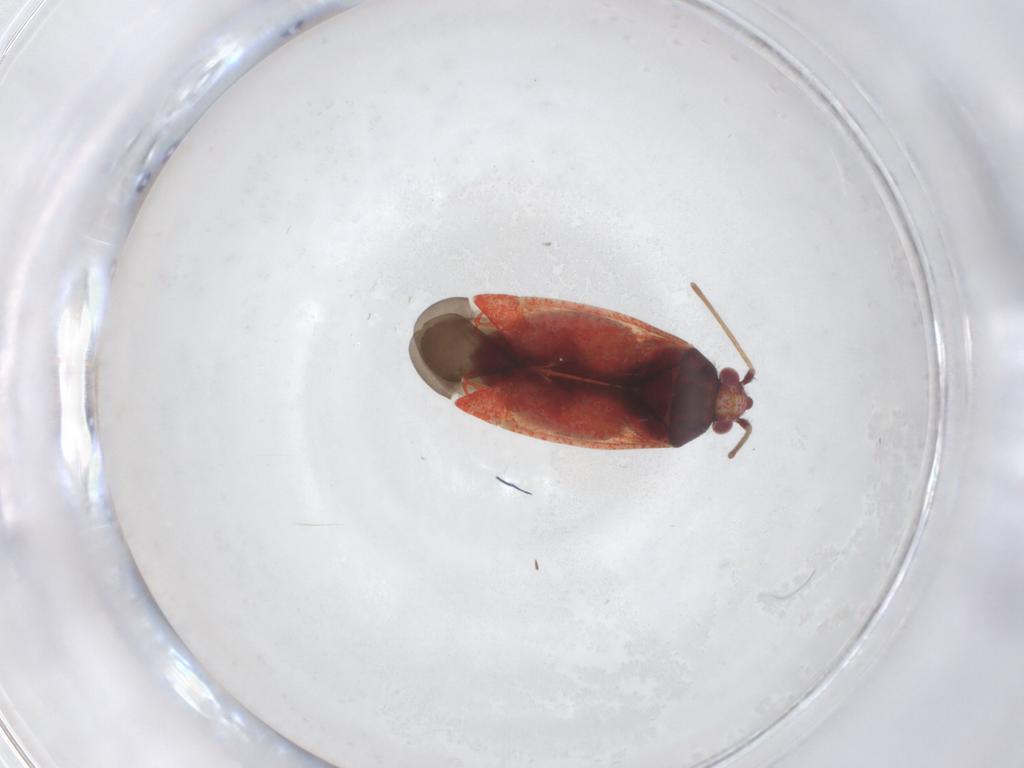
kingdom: Animalia
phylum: Arthropoda
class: Insecta
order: Hemiptera
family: Miridae
